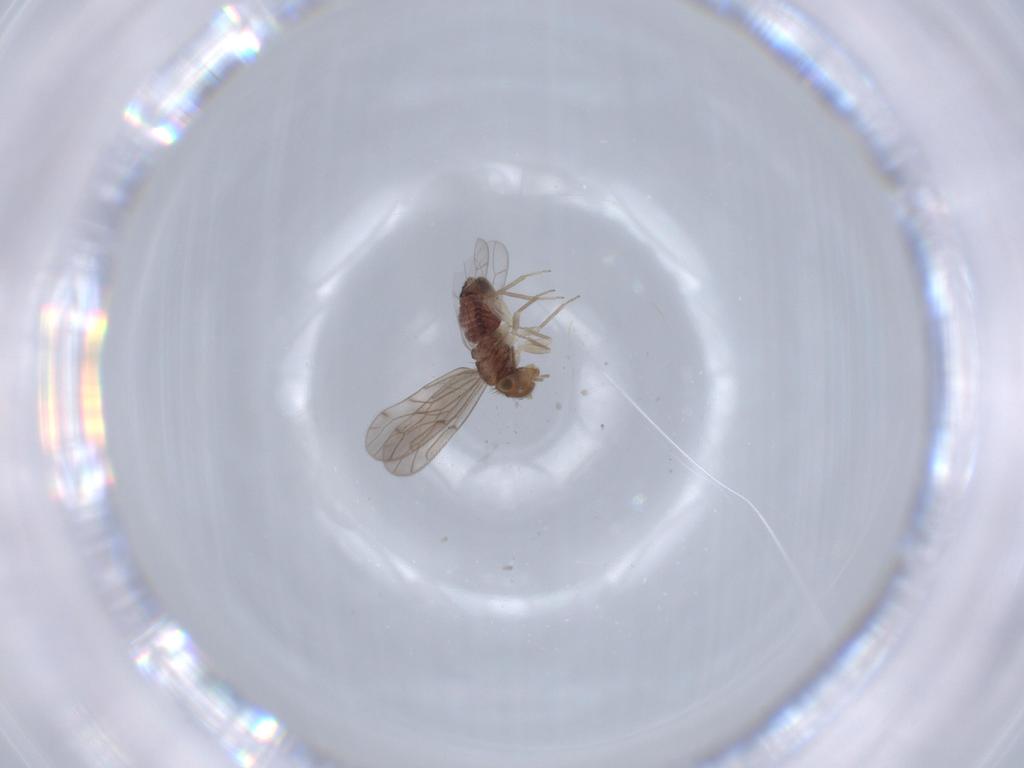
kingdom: Animalia
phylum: Arthropoda
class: Insecta
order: Psocodea
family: Ectopsocidae
